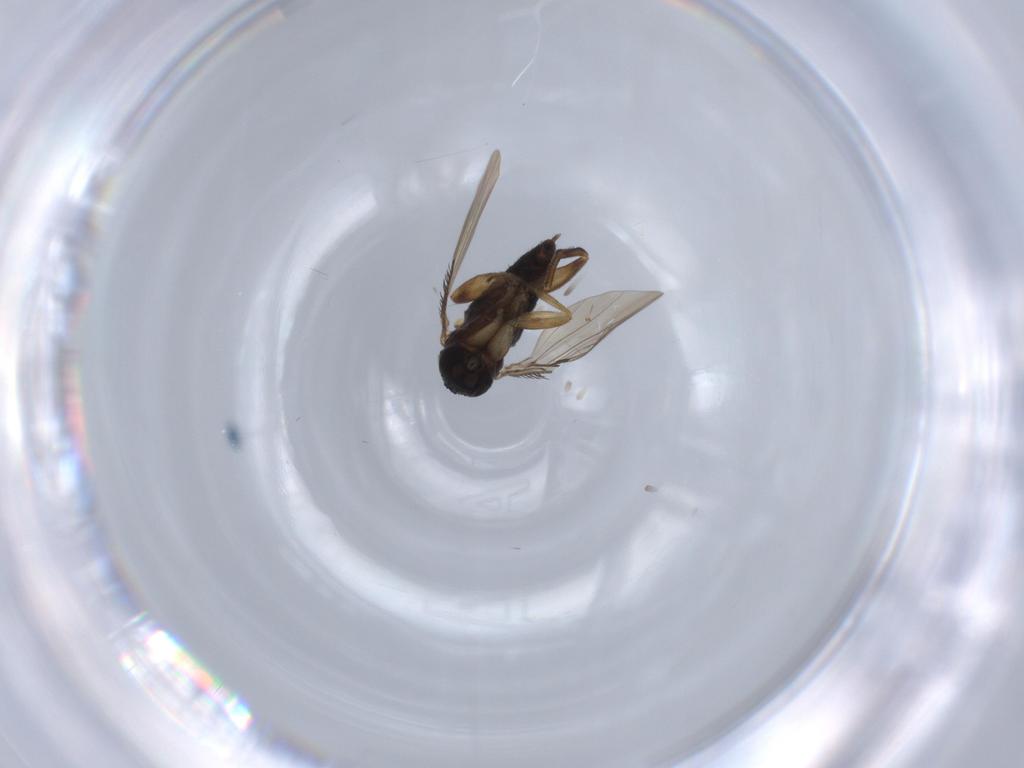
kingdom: Animalia
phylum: Arthropoda
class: Insecta
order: Diptera
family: Phoridae
